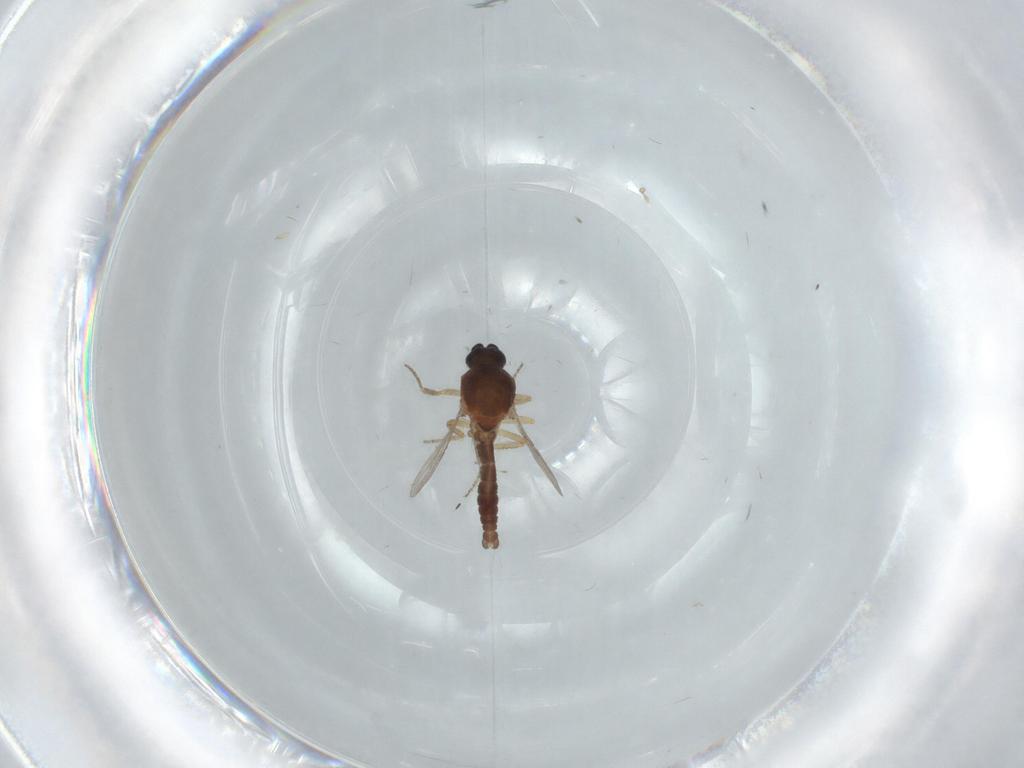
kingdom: Animalia
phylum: Arthropoda
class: Insecta
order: Diptera
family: Ceratopogonidae
